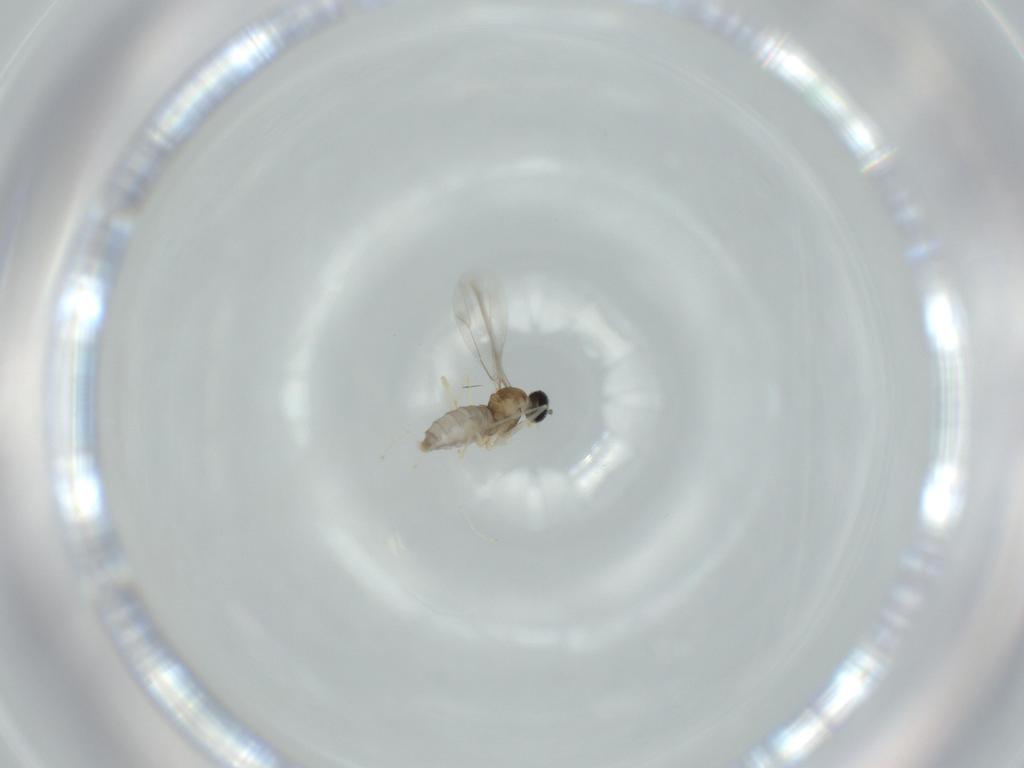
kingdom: Animalia
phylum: Arthropoda
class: Insecta
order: Diptera
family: Cecidomyiidae
